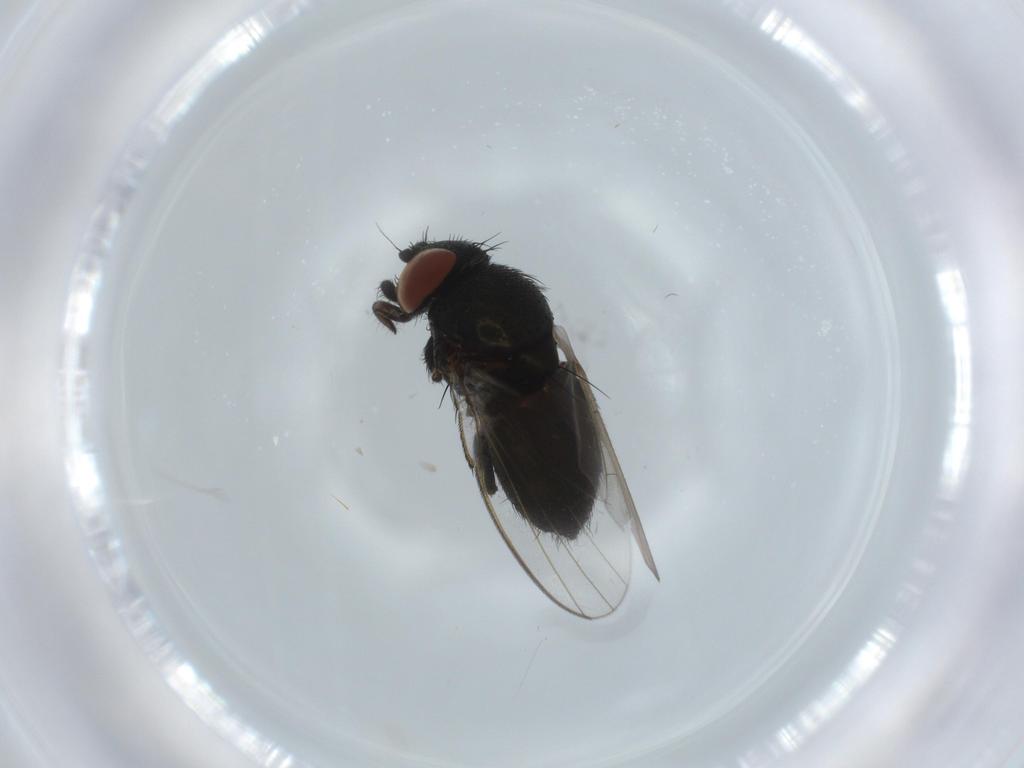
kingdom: Animalia
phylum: Arthropoda
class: Insecta
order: Diptera
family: Milichiidae
